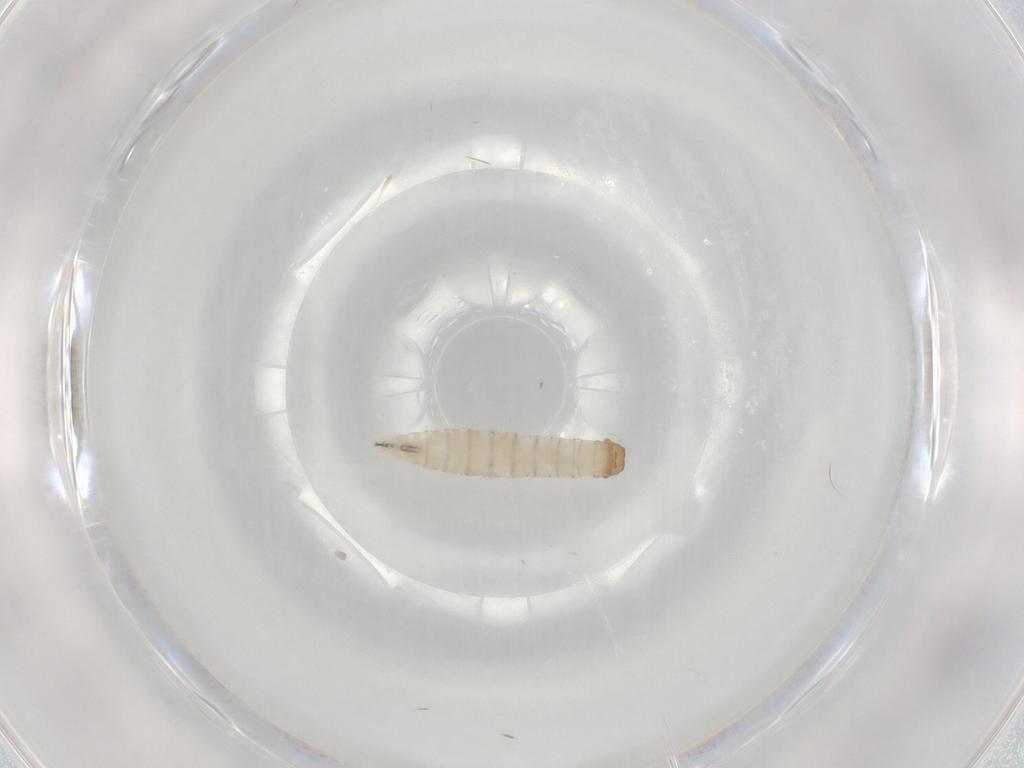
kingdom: Animalia
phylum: Arthropoda
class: Insecta
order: Diptera
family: Sarcophagidae
